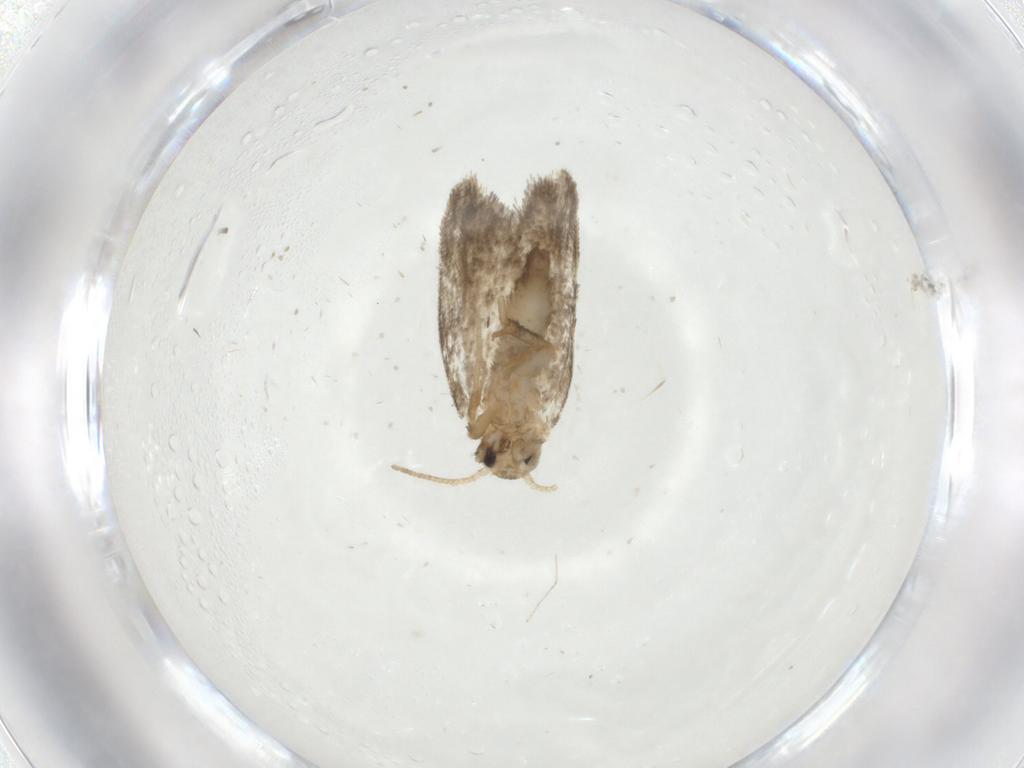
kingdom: Animalia
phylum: Arthropoda
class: Insecta
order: Lepidoptera
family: Psychidae
